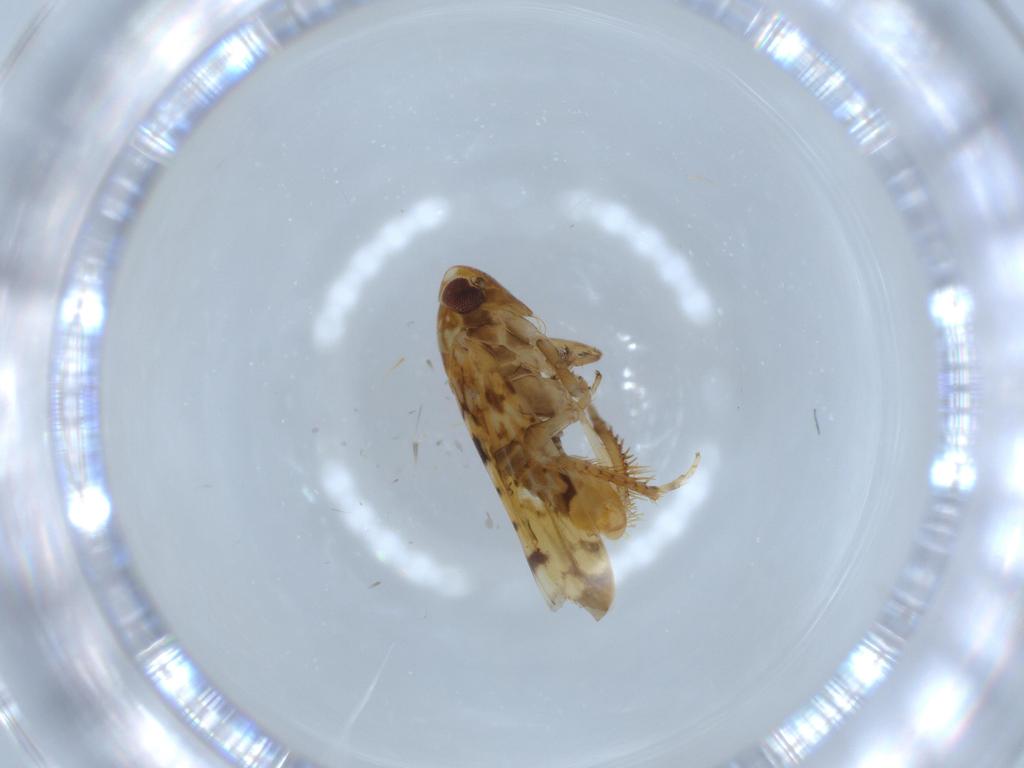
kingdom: Animalia
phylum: Arthropoda
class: Insecta
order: Hemiptera
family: Cicadellidae
